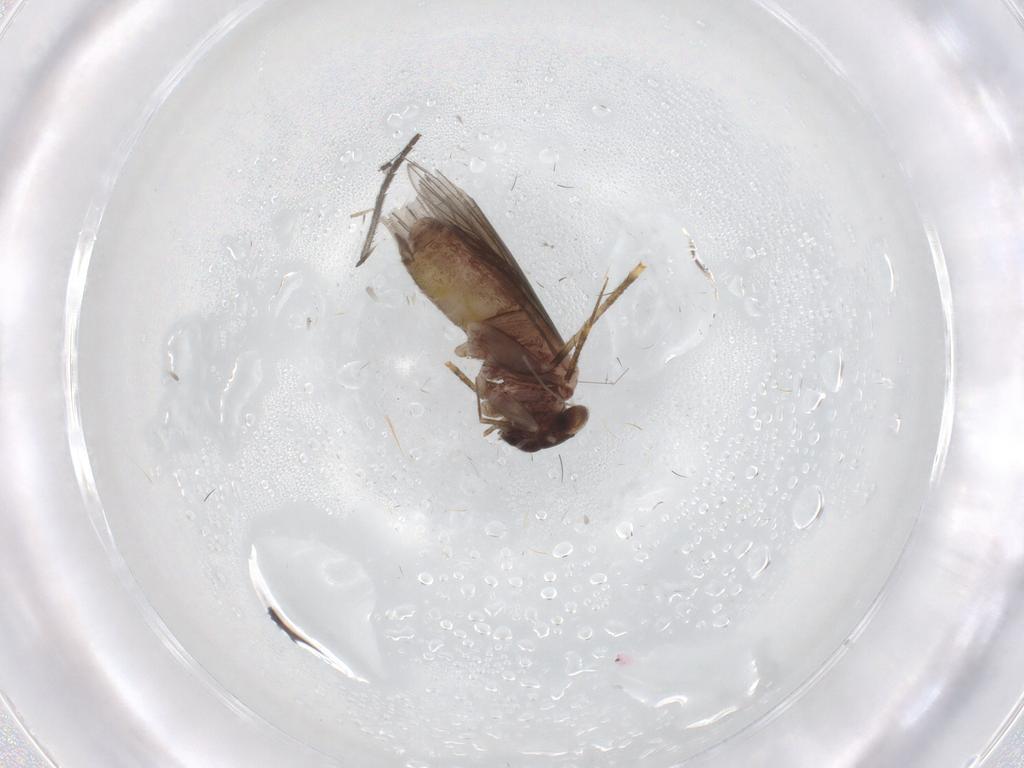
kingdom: Animalia
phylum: Arthropoda
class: Insecta
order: Psocodea
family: Lepidopsocidae
